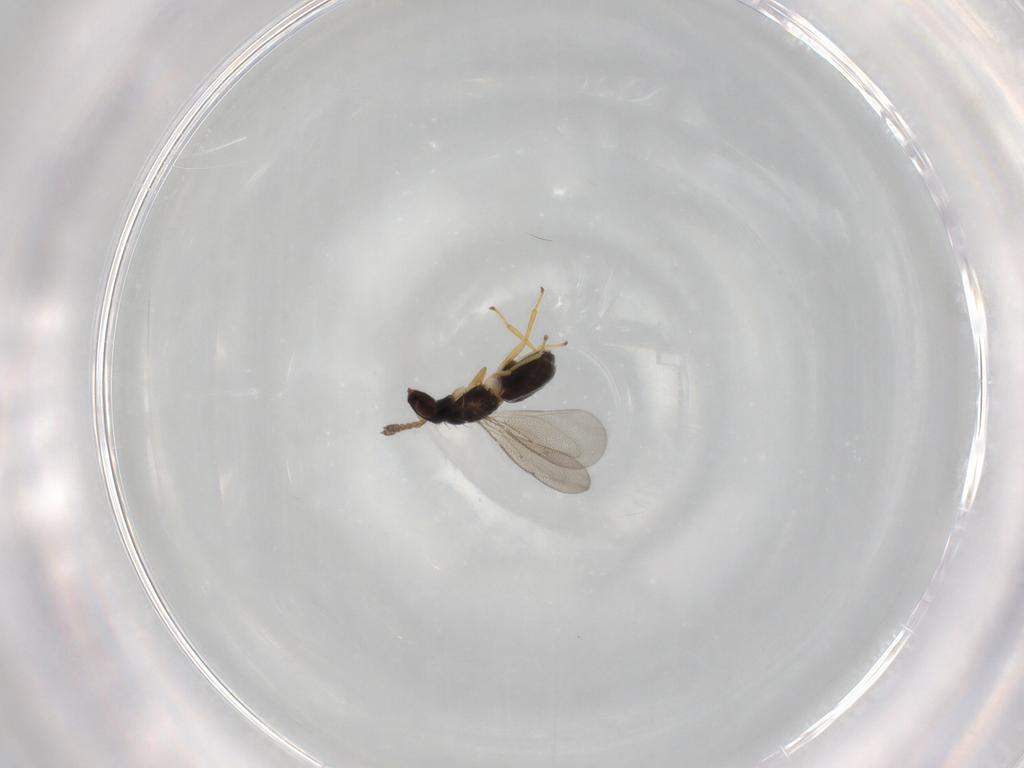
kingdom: Animalia
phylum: Arthropoda
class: Insecta
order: Hymenoptera
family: Eulophidae
